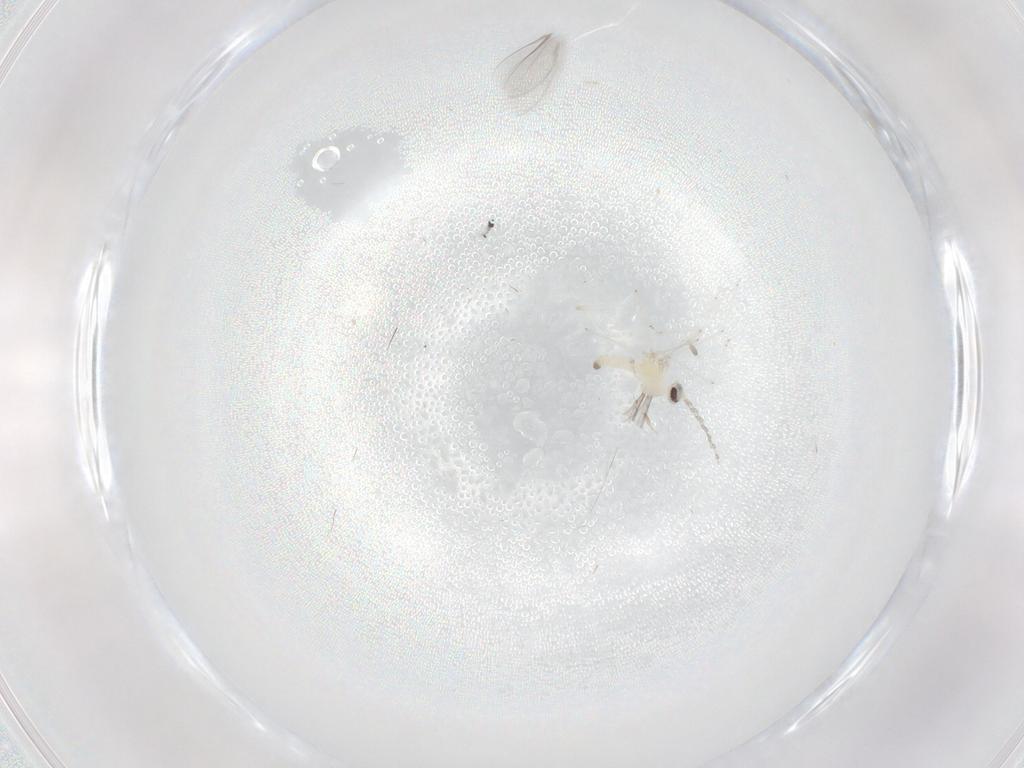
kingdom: Animalia
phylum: Arthropoda
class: Insecta
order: Diptera
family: Cecidomyiidae
